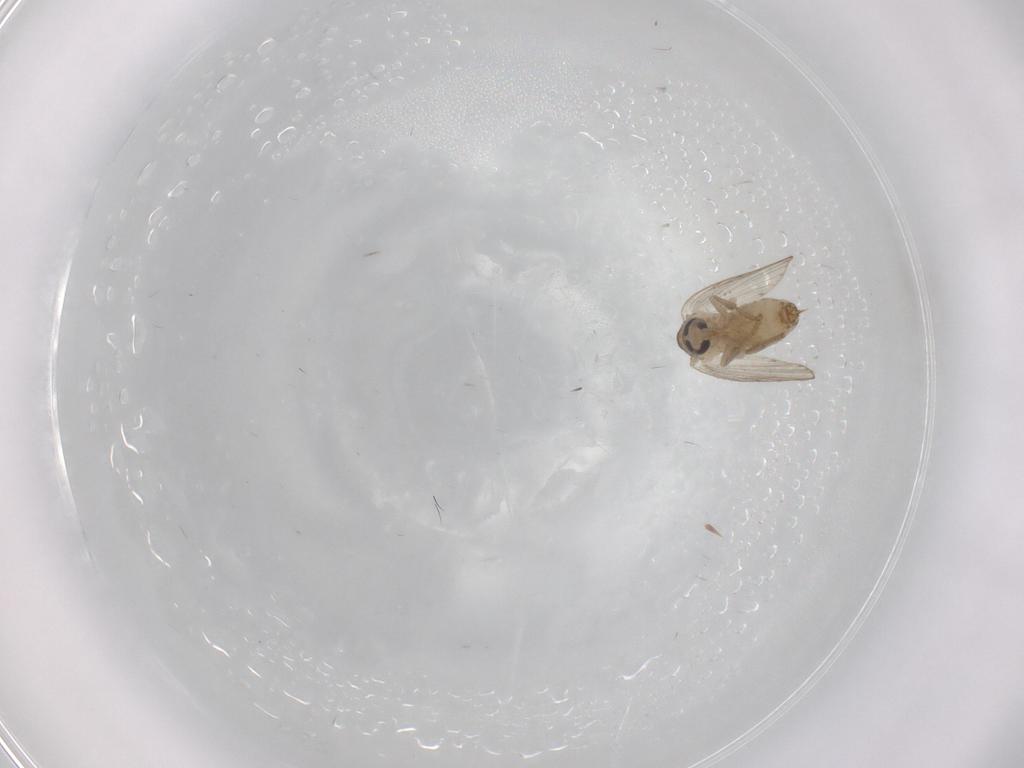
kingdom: Animalia
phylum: Arthropoda
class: Insecta
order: Diptera
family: Psychodidae
